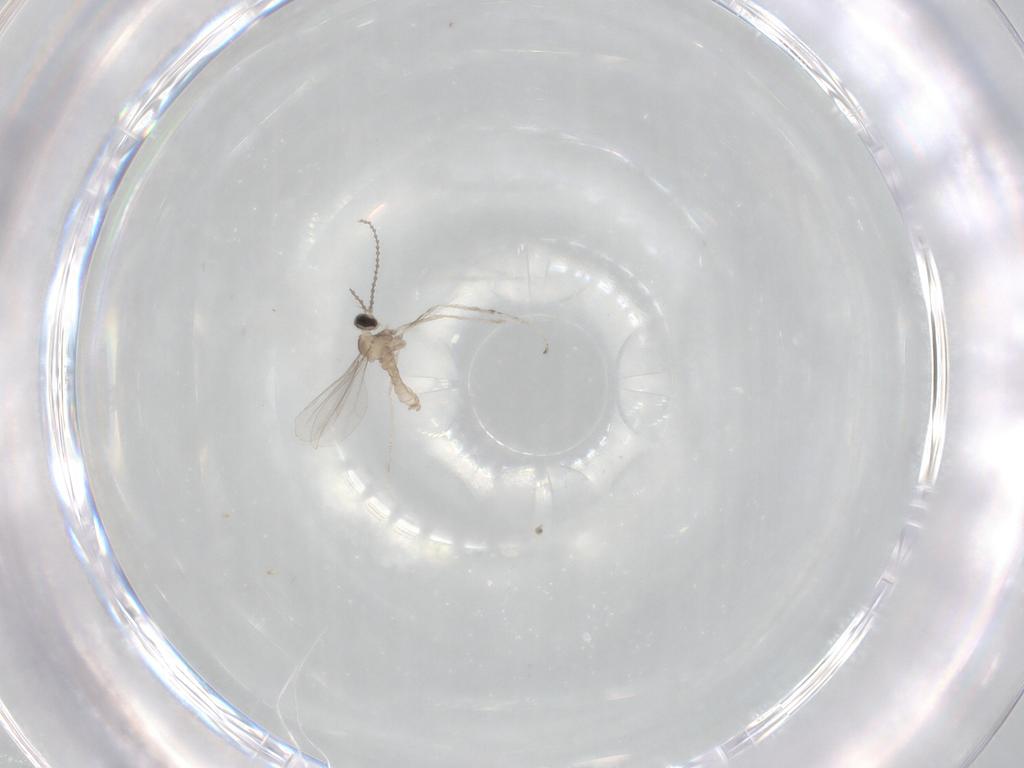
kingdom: Animalia
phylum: Arthropoda
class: Insecta
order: Diptera
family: Cecidomyiidae
